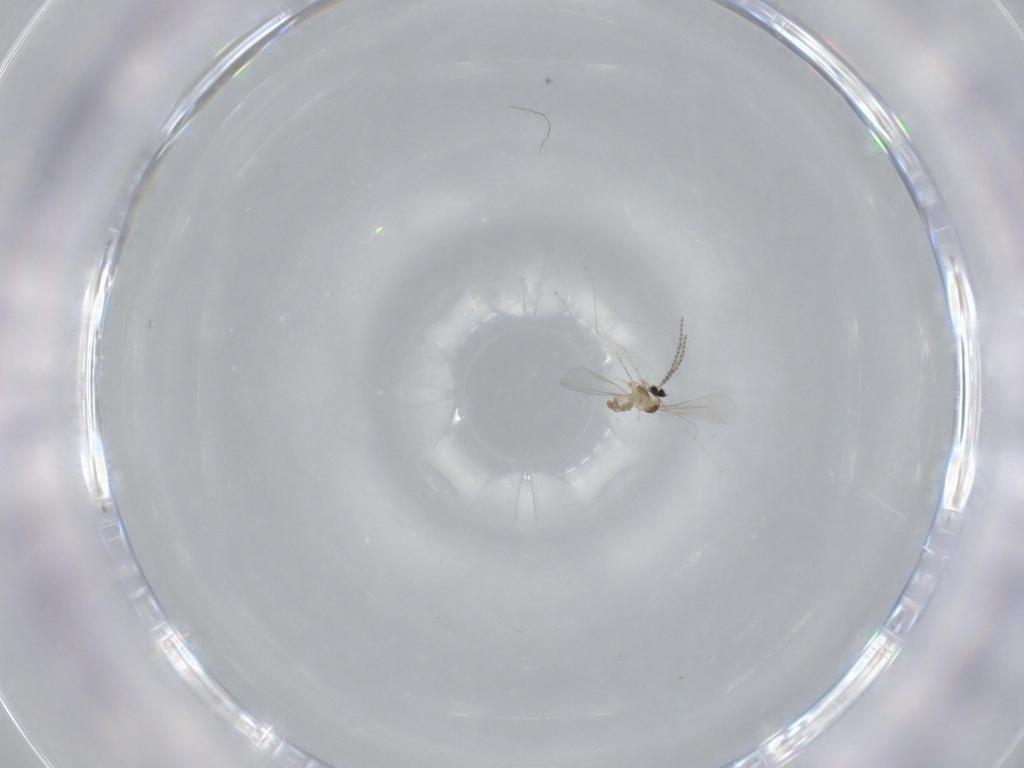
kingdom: Animalia
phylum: Arthropoda
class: Insecta
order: Diptera
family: Cecidomyiidae
